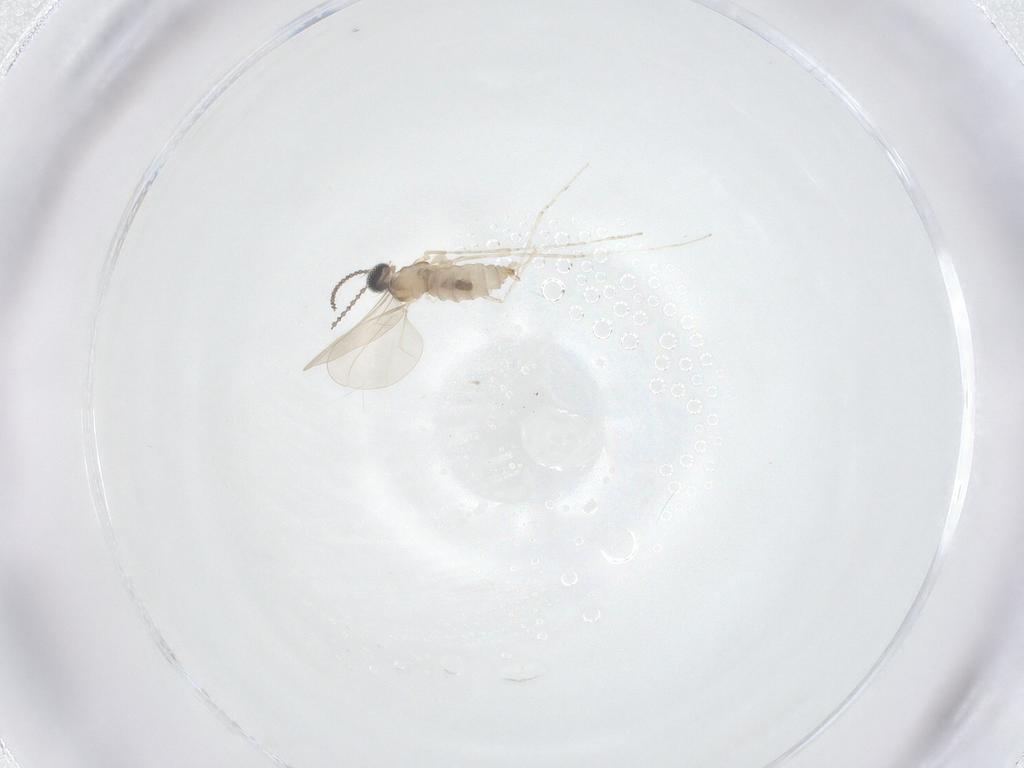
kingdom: Animalia
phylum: Arthropoda
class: Insecta
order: Diptera
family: Cecidomyiidae
